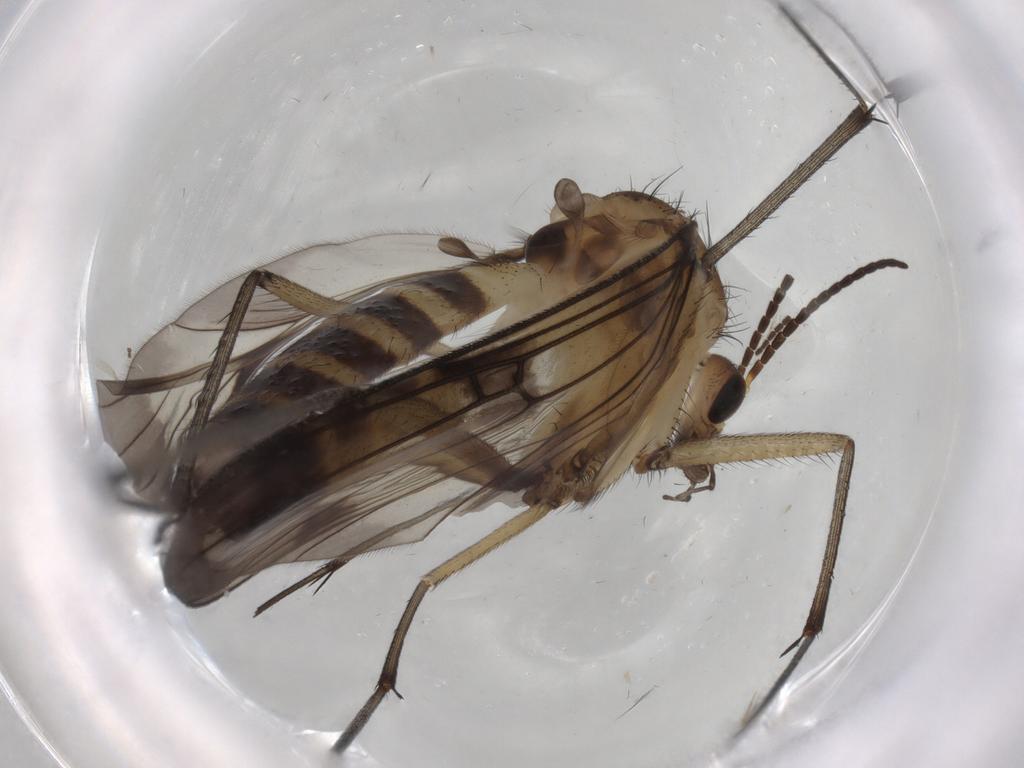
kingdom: Animalia
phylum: Arthropoda
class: Insecta
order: Diptera
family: Mycetophilidae
